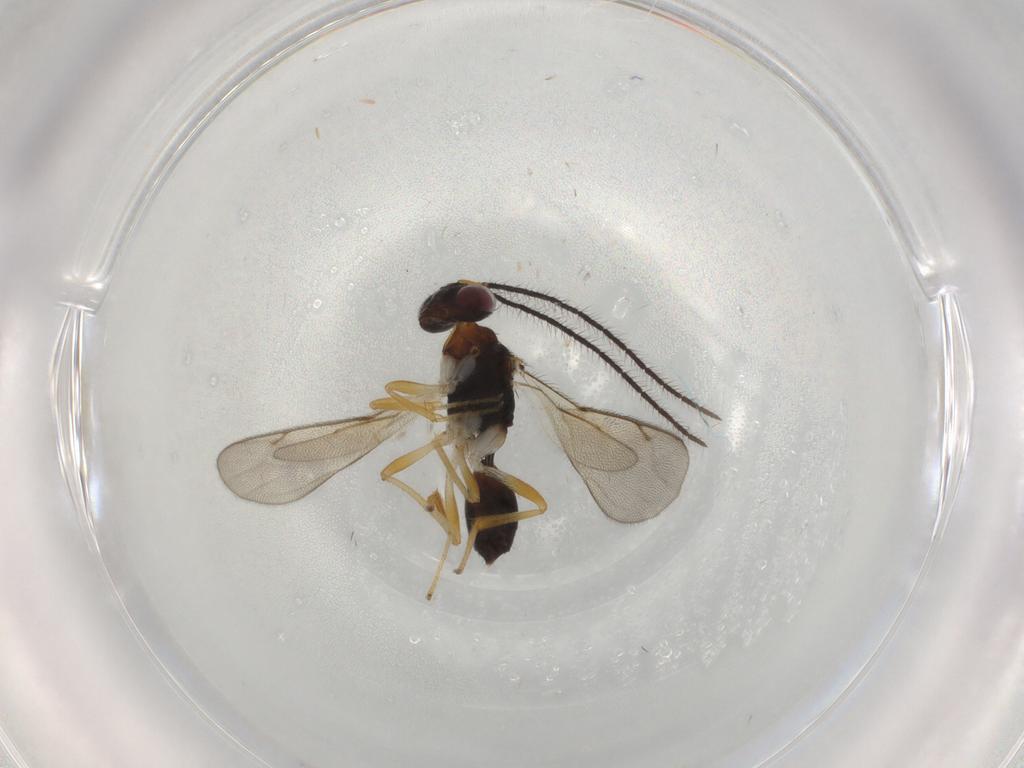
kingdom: Animalia
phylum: Arthropoda
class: Insecta
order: Hymenoptera
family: Diparidae
